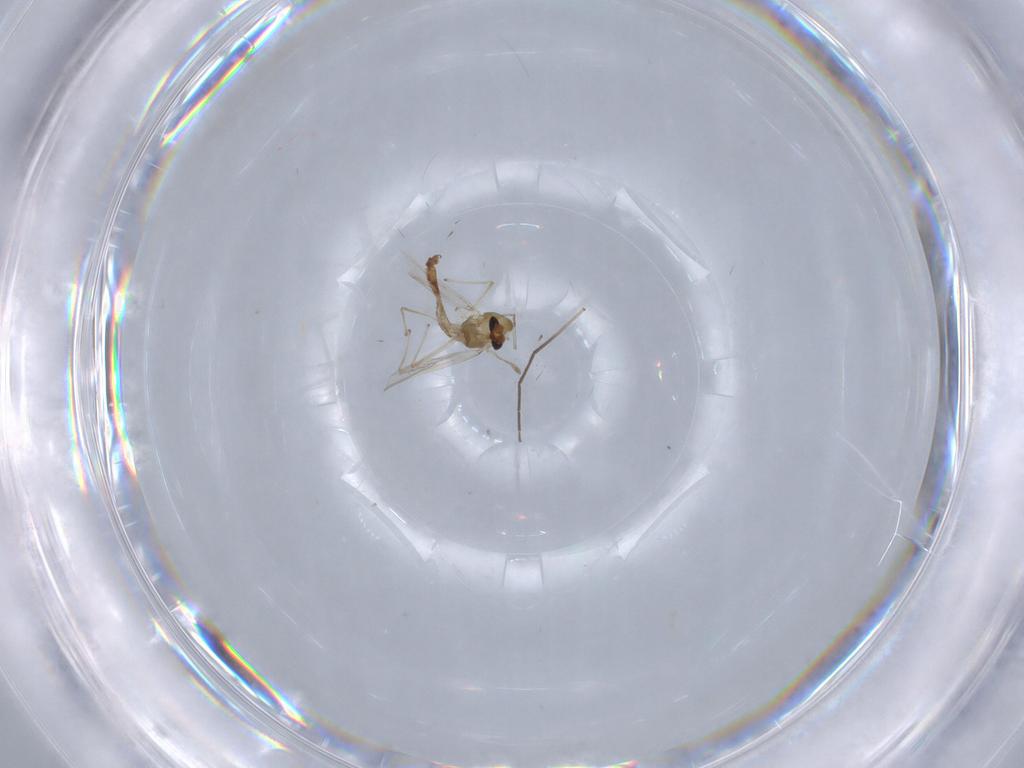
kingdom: Animalia
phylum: Arthropoda
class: Insecta
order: Diptera
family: Chironomidae
